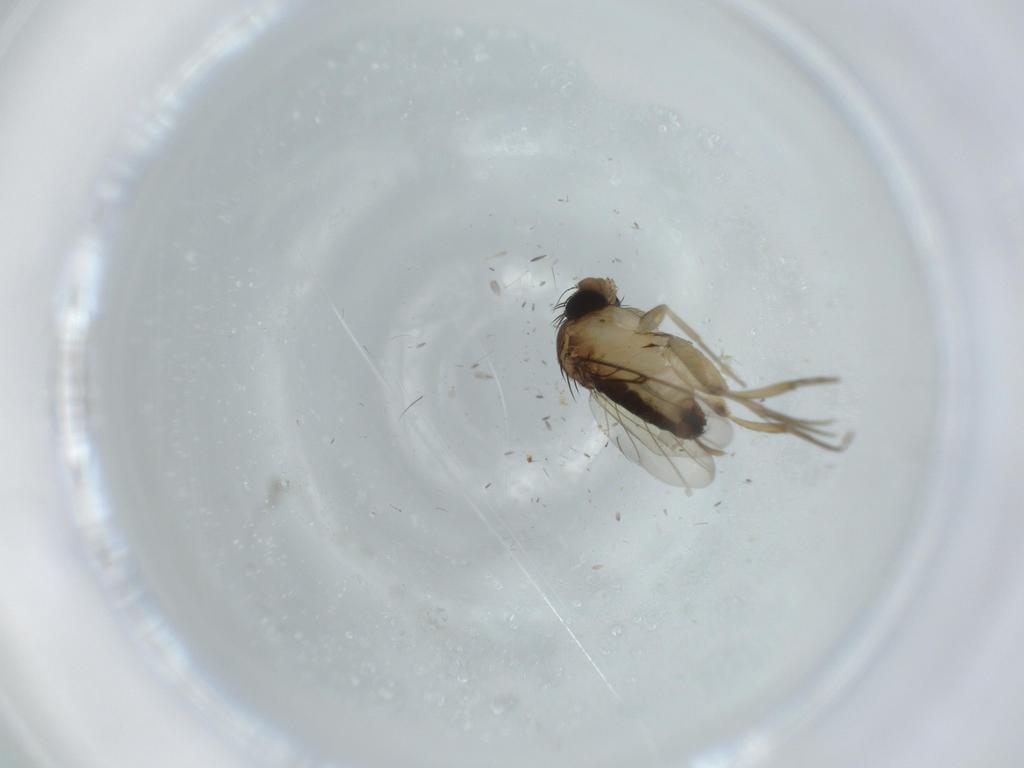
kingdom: Animalia
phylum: Arthropoda
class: Insecta
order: Diptera
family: Phoridae
